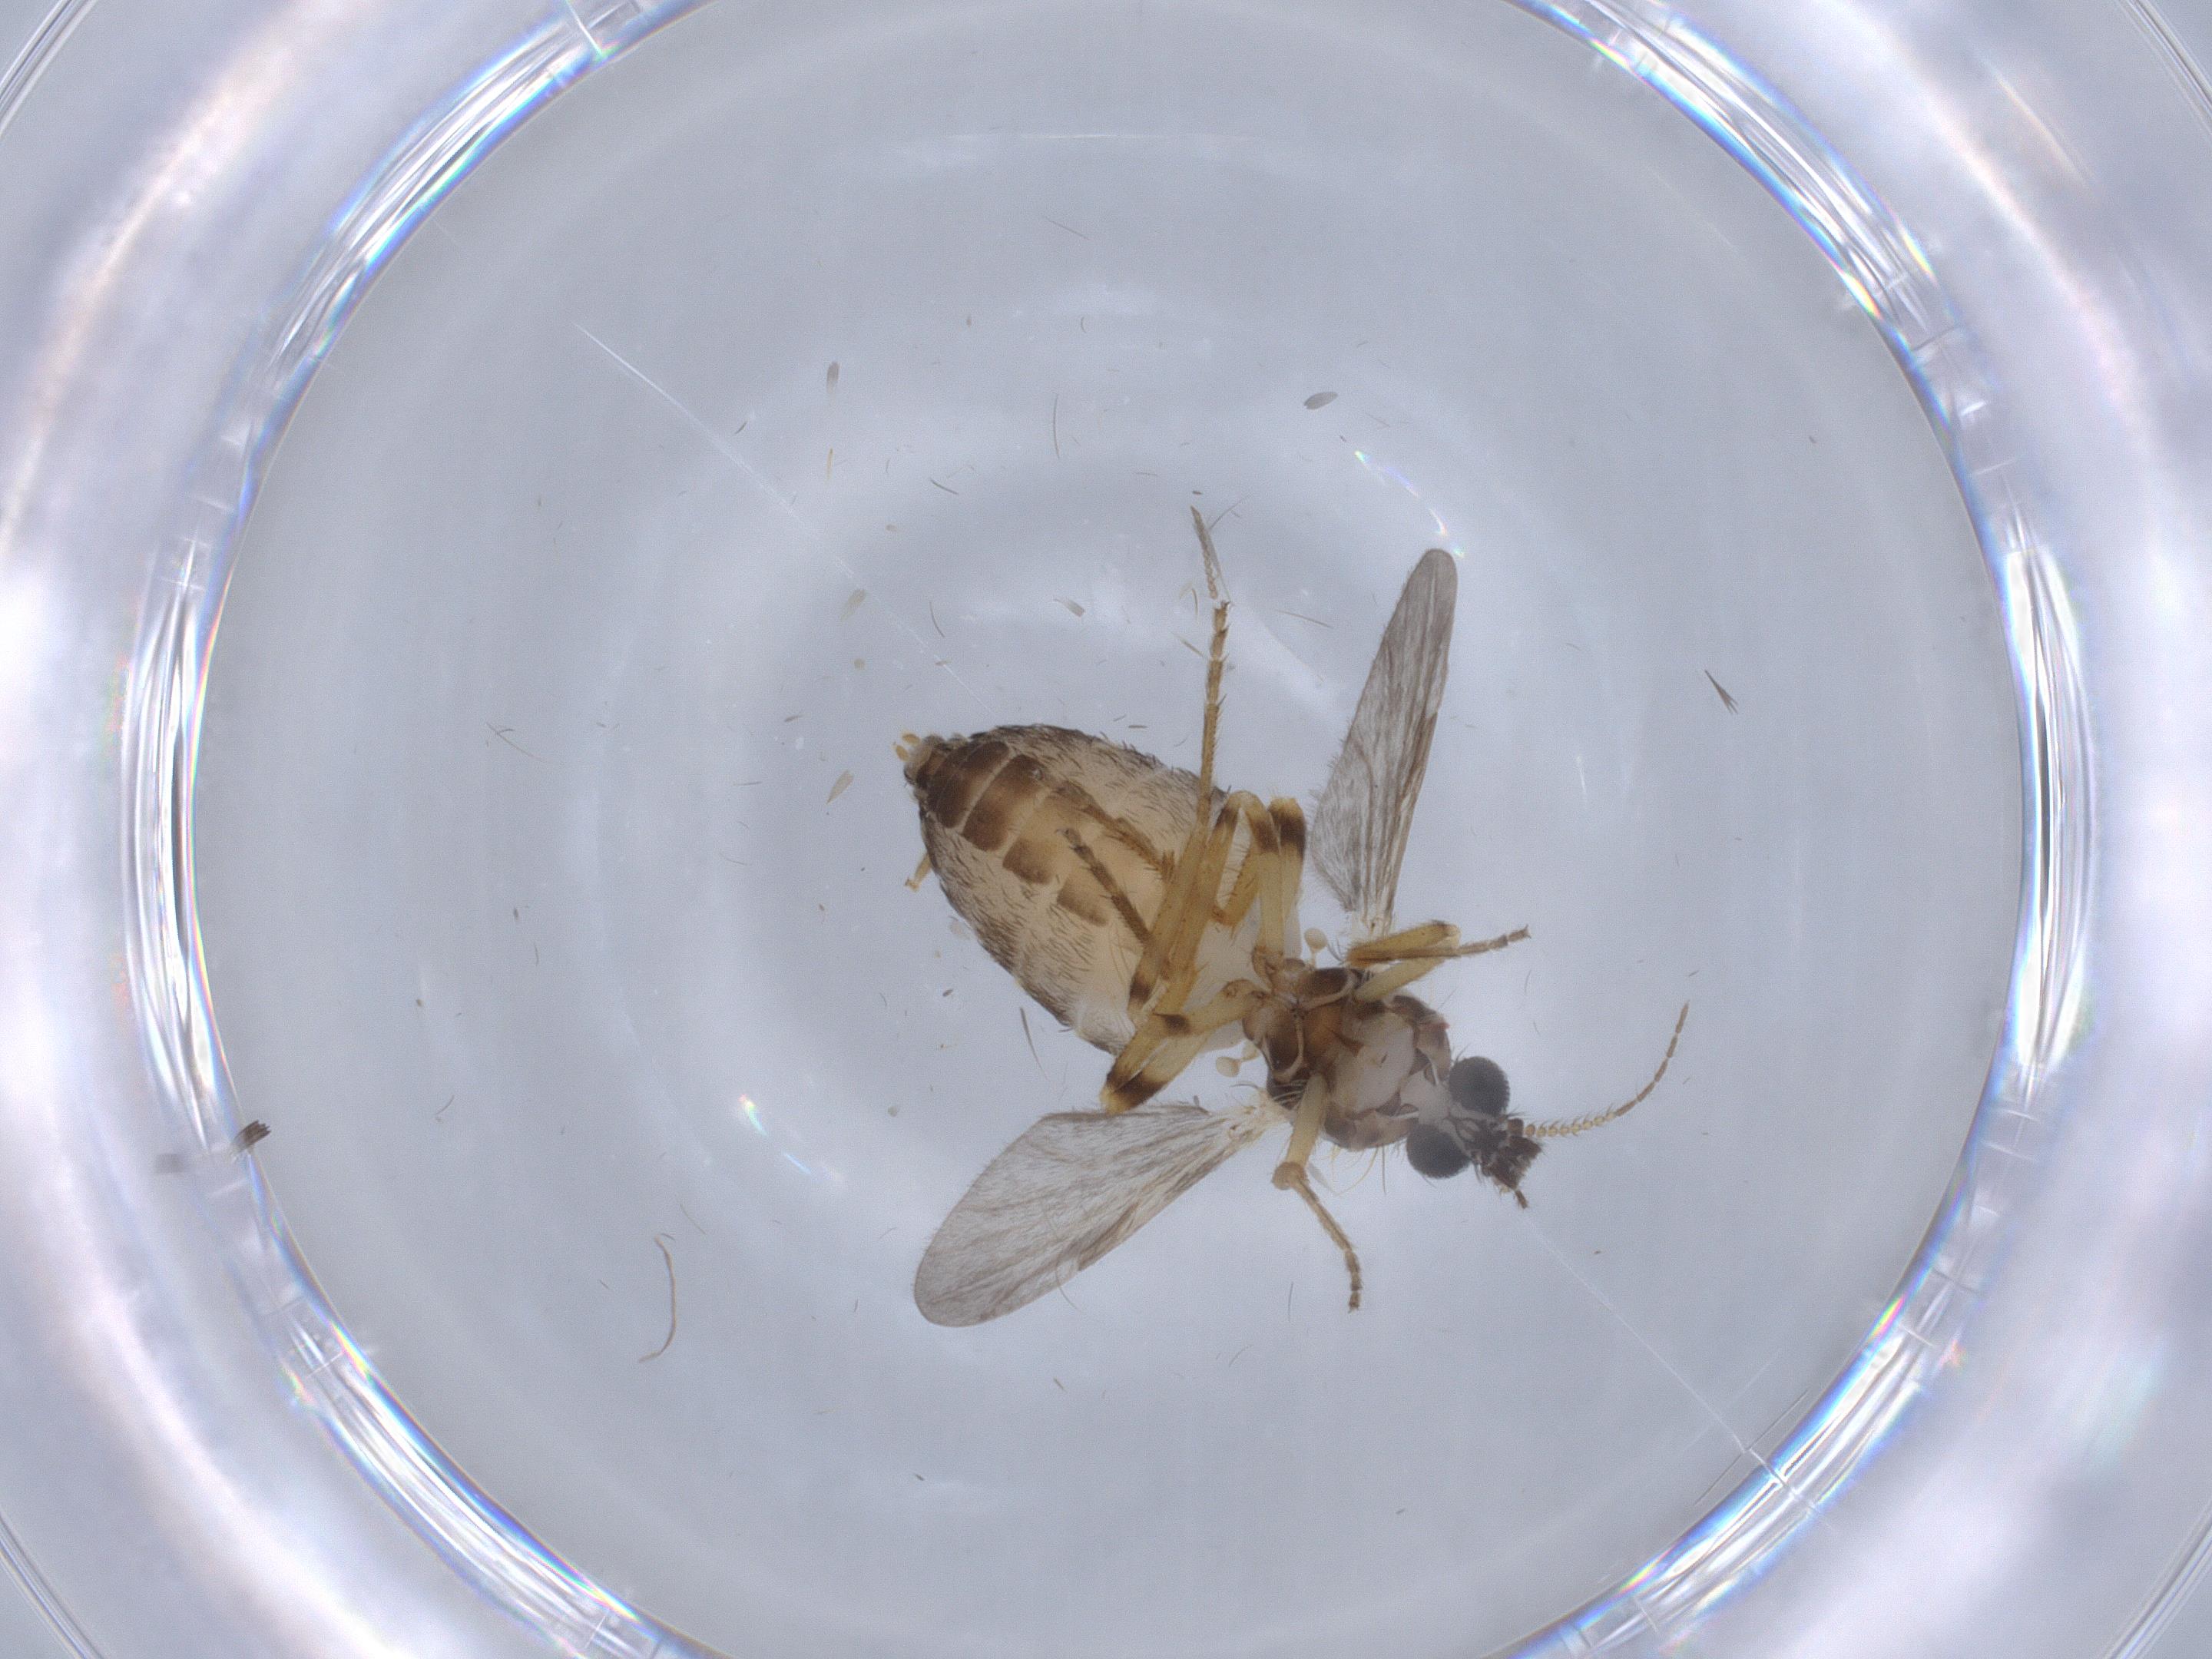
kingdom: Animalia
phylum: Arthropoda
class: Insecta
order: Diptera
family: Ceratopogonidae
